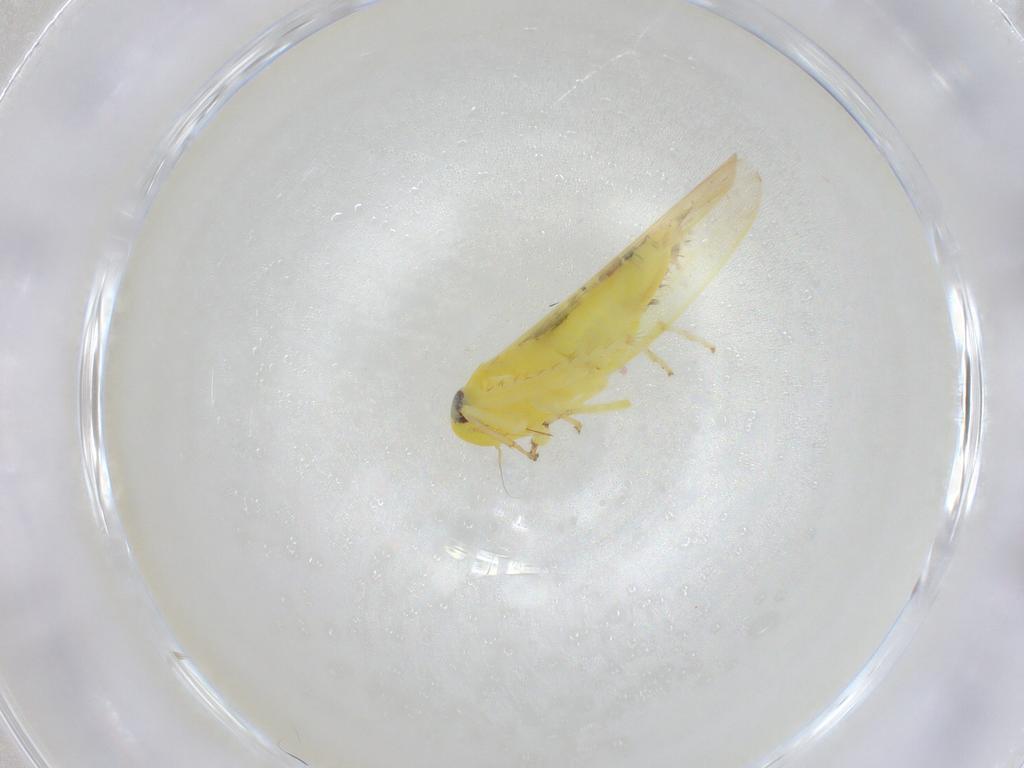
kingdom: Animalia
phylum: Arthropoda
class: Insecta
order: Hemiptera
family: Cicadellidae
